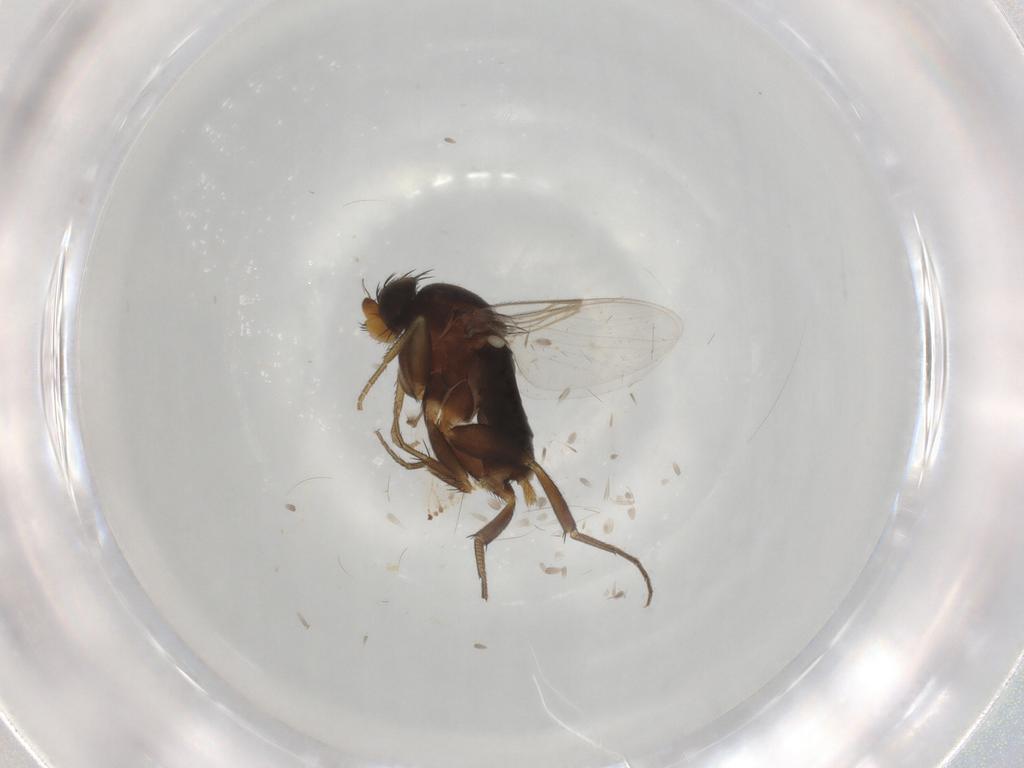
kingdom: Animalia
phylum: Arthropoda
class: Insecta
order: Diptera
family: Phoridae
